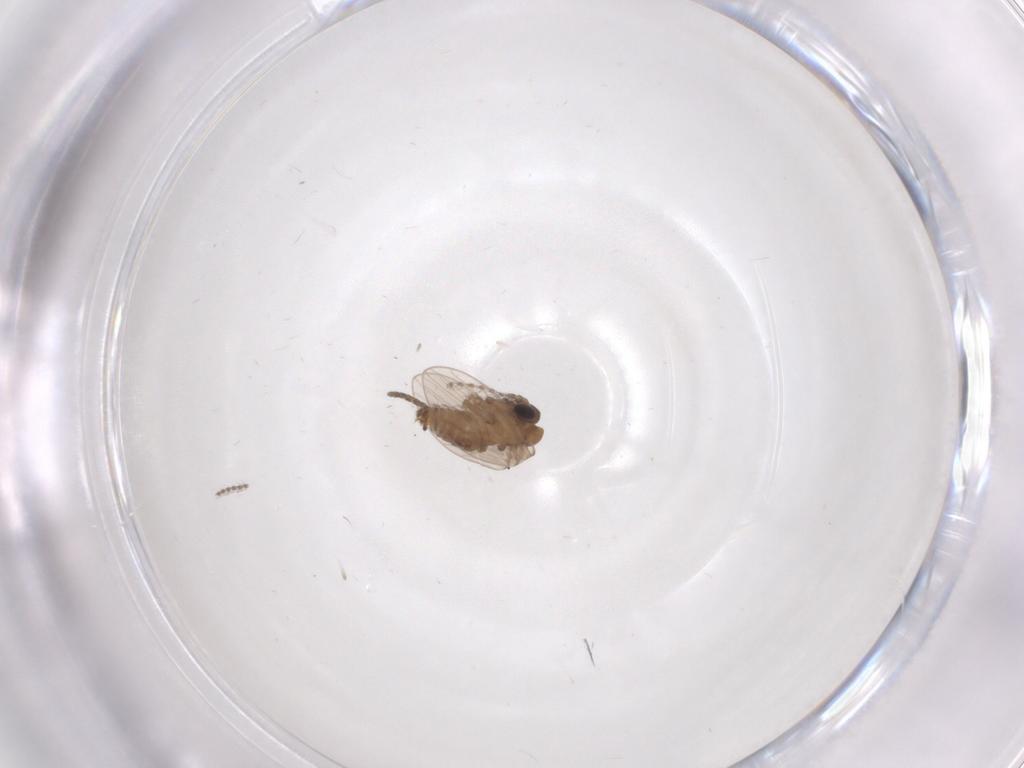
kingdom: Animalia
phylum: Arthropoda
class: Insecta
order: Diptera
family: Psychodidae
